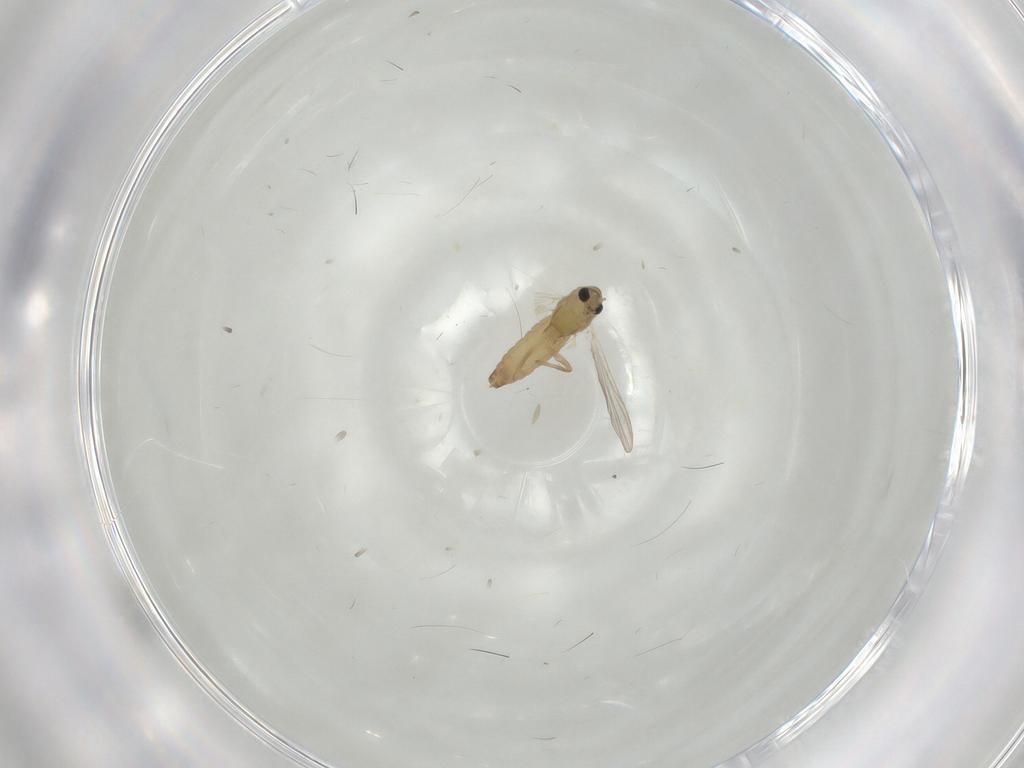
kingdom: Animalia
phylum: Arthropoda
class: Insecta
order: Diptera
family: Chironomidae
